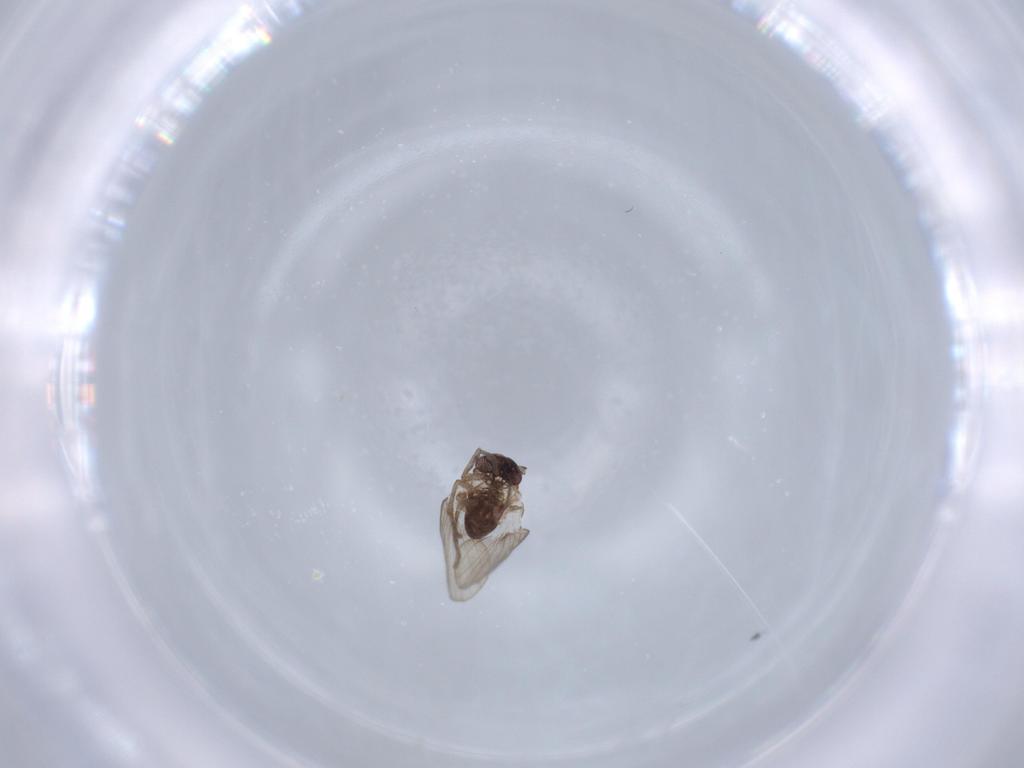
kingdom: Animalia
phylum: Arthropoda
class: Insecta
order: Diptera
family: Psychodidae
